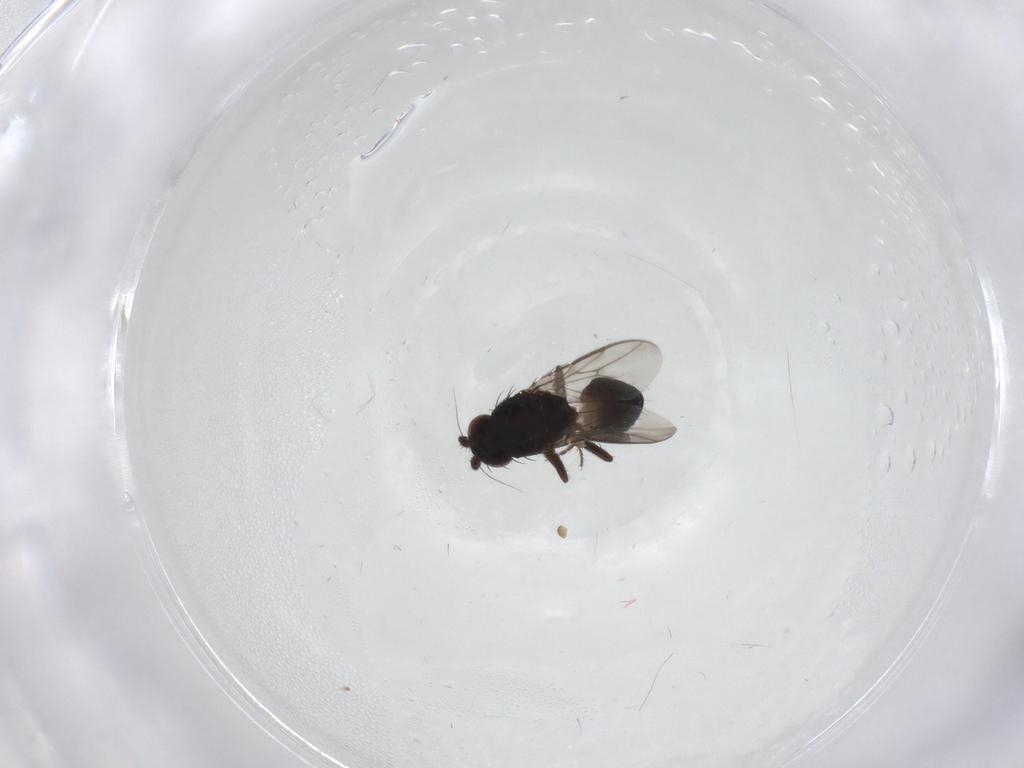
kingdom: Animalia
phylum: Arthropoda
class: Insecta
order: Diptera
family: Sphaeroceridae
